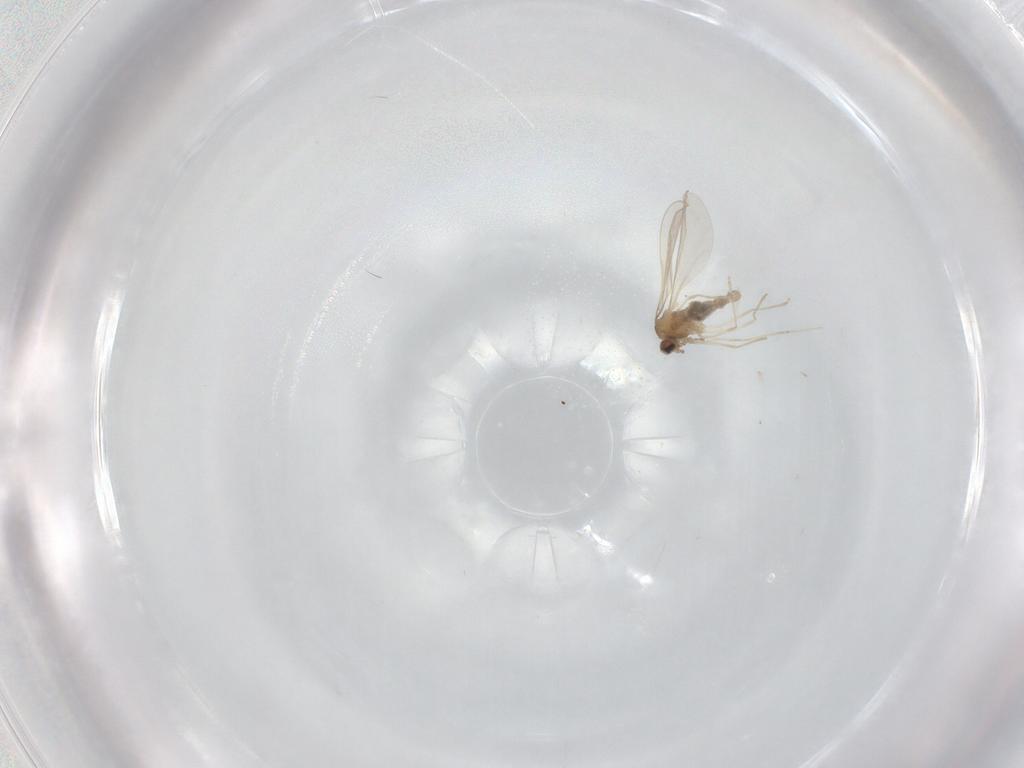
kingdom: Animalia
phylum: Arthropoda
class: Insecta
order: Diptera
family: Cecidomyiidae
